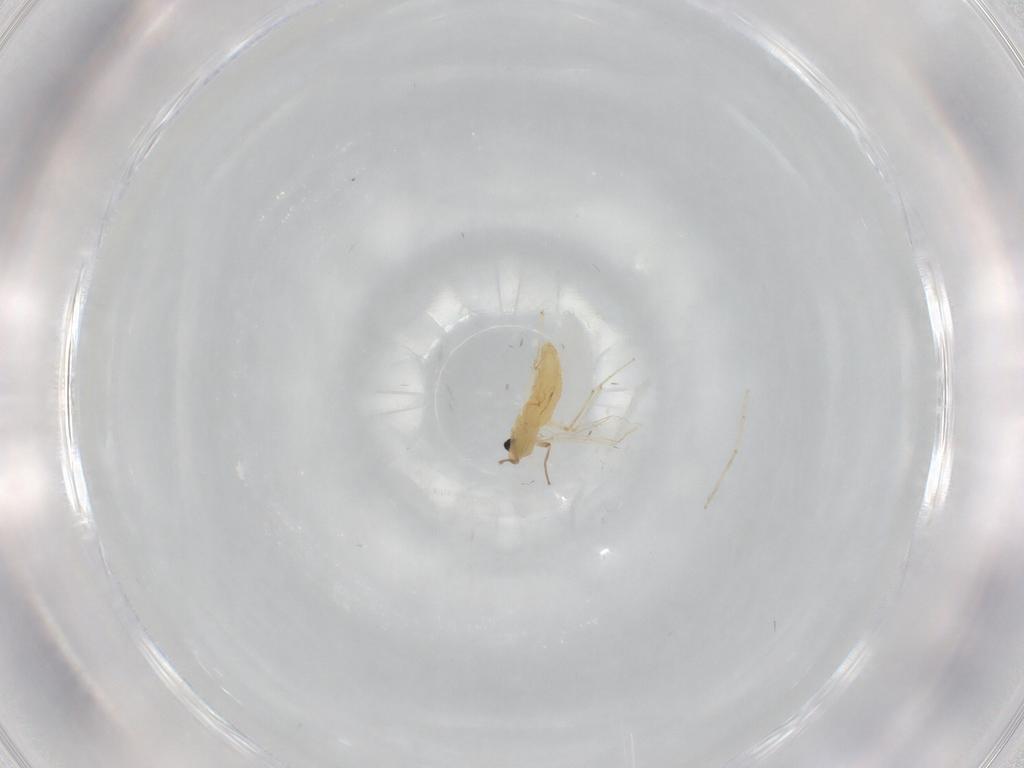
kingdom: Animalia
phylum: Arthropoda
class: Insecta
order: Diptera
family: Chironomidae
